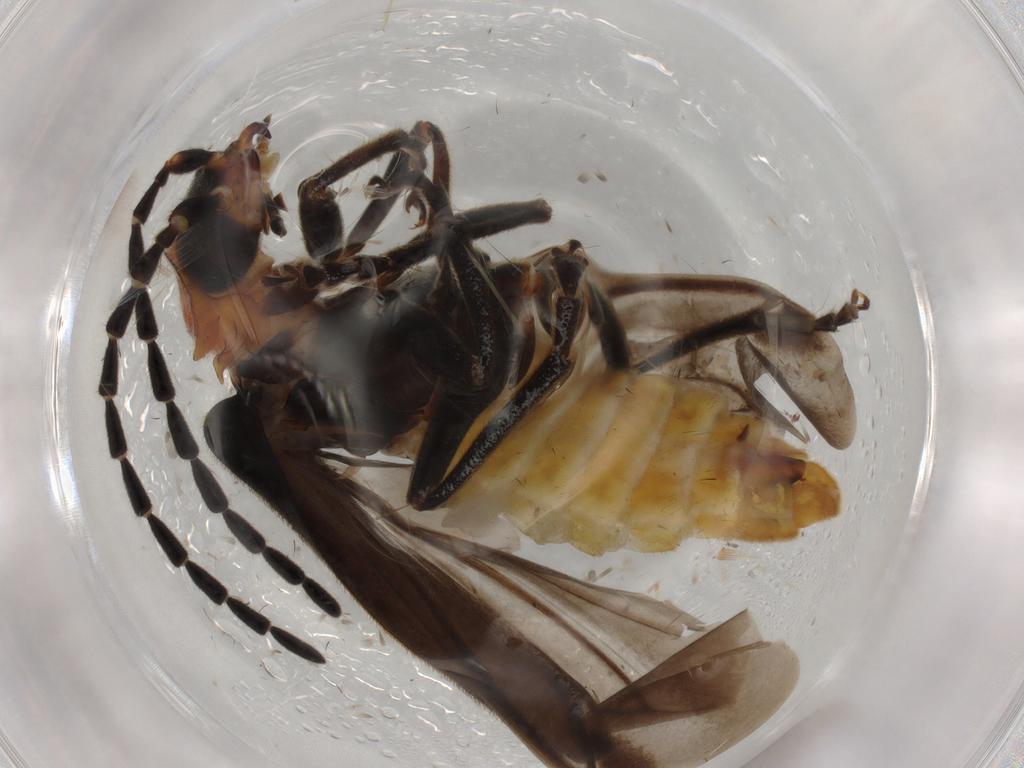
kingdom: Animalia
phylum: Arthropoda
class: Insecta
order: Coleoptera
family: Cantharidae
